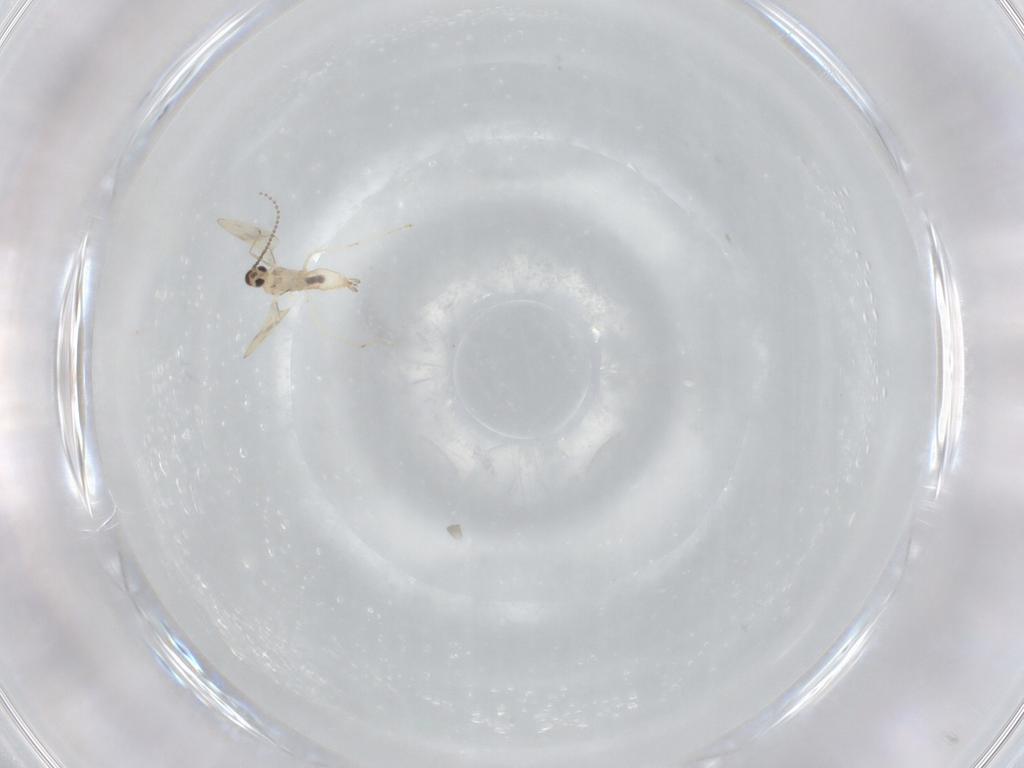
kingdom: Animalia
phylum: Arthropoda
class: Insecta
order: Diptera
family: Cecidomyiidae
